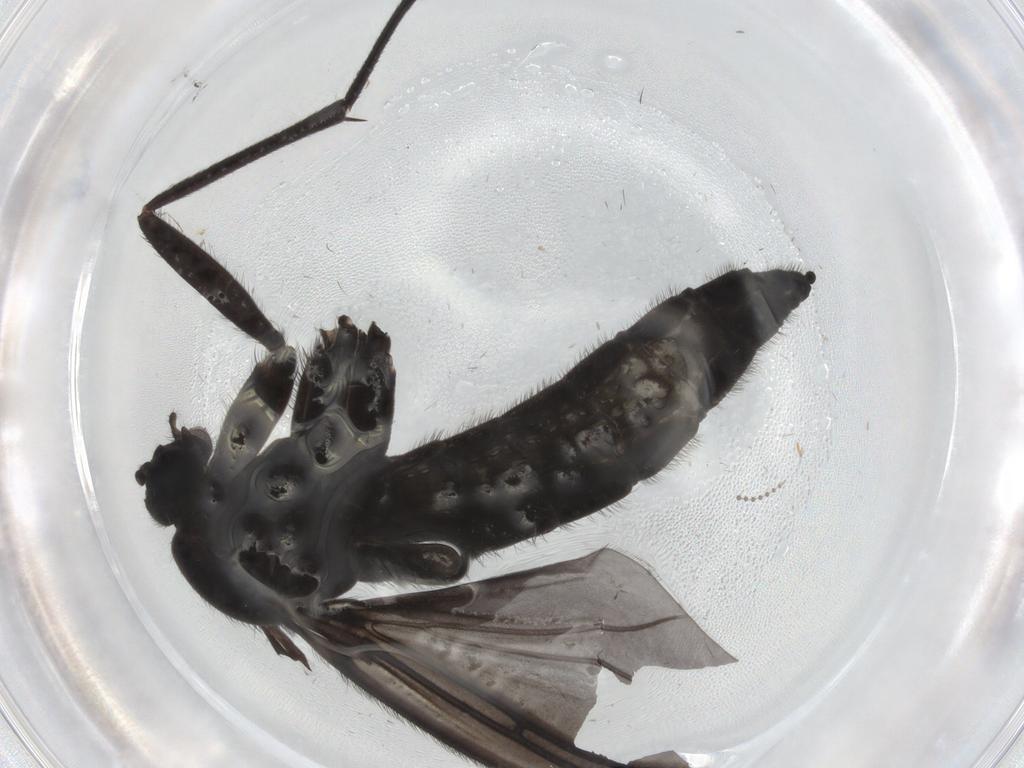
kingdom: Animalia
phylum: Arthropoda
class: Insecta
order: Diptera
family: Sciaridae
